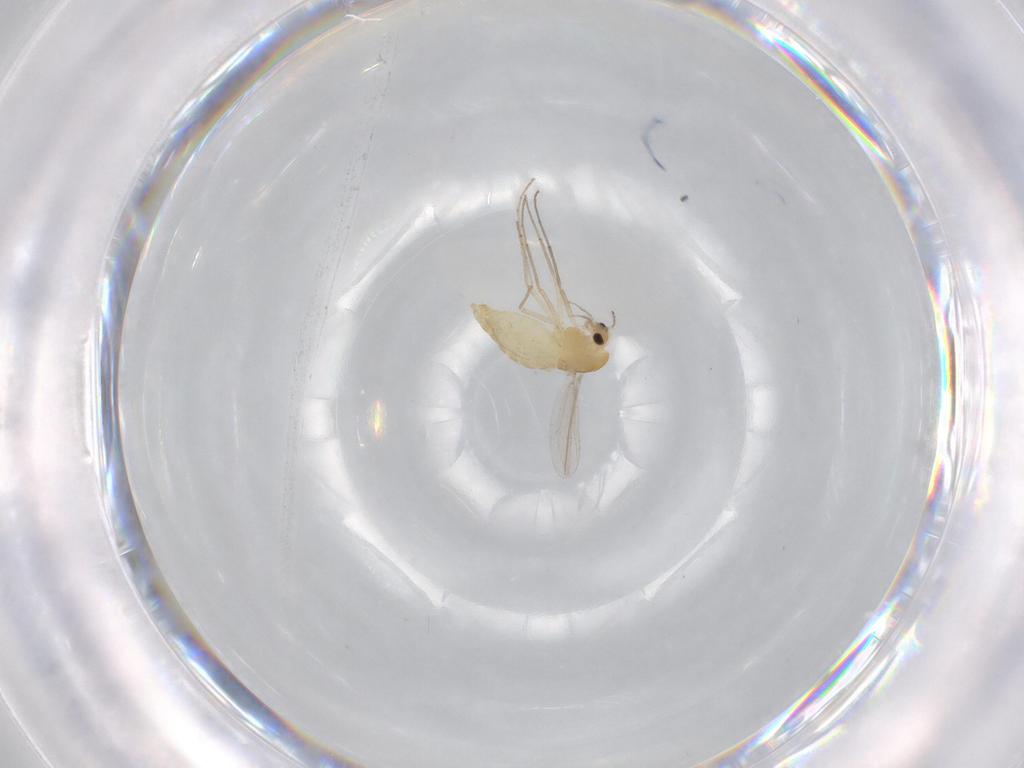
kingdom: Animalia
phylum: Arthropoda
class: Insecta
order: Diptera
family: Chironomidae
